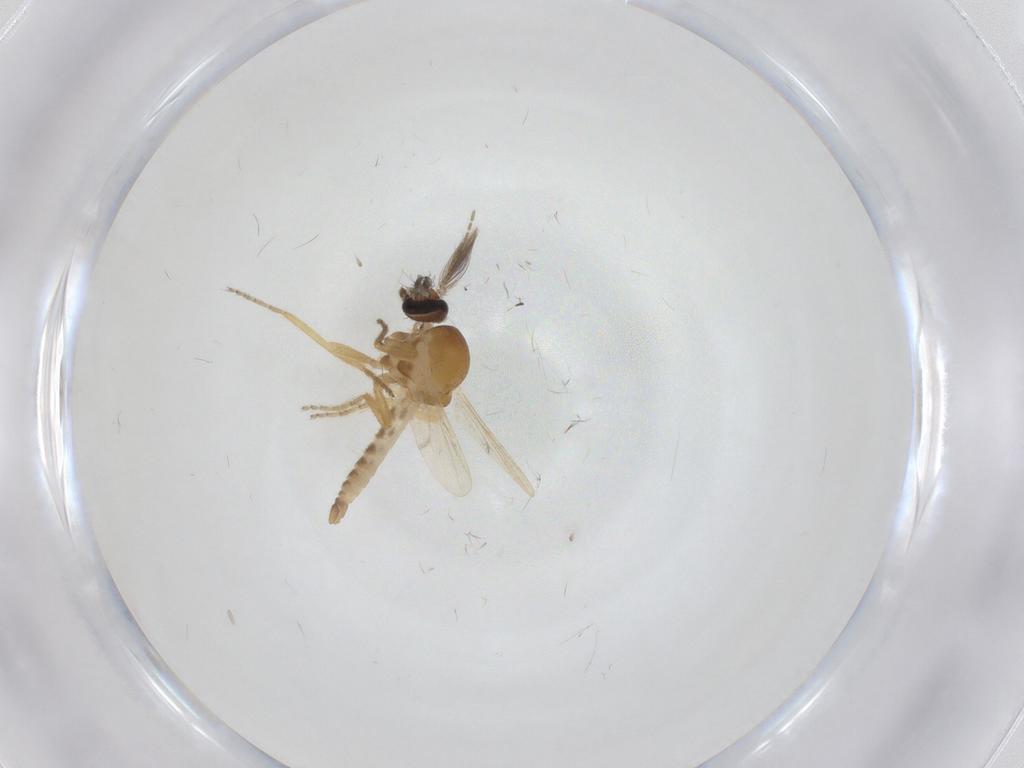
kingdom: Animalia
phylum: Arthropoda
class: Insecta
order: Diptera
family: Ceratopogonidae
